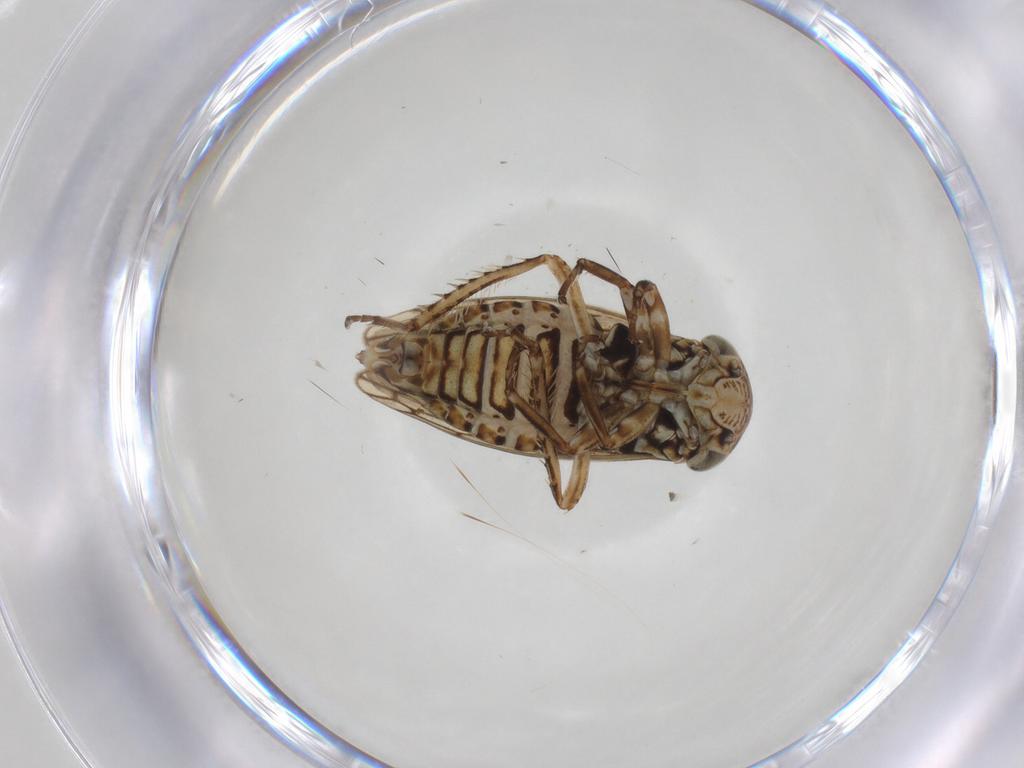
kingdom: Animalia
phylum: Arthropoda
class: Insecta
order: Hemiptera
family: Cicadellidae
